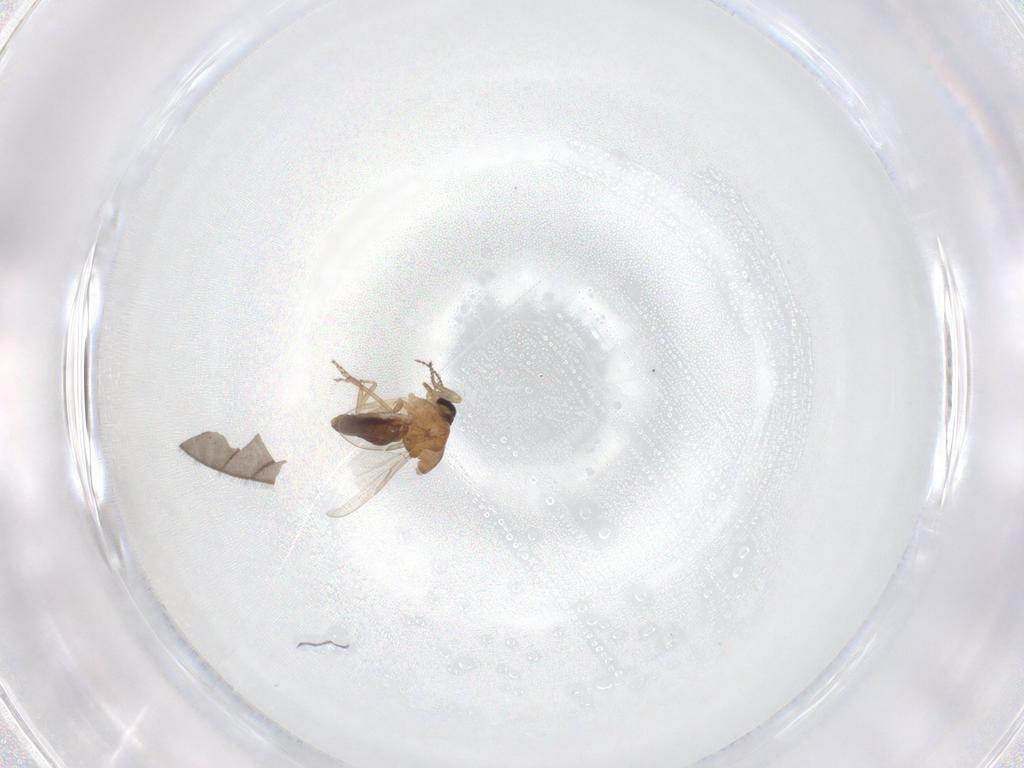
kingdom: Animalia
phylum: Arthropoda
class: Insecta
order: Diptera
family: Ceratopogonidae
